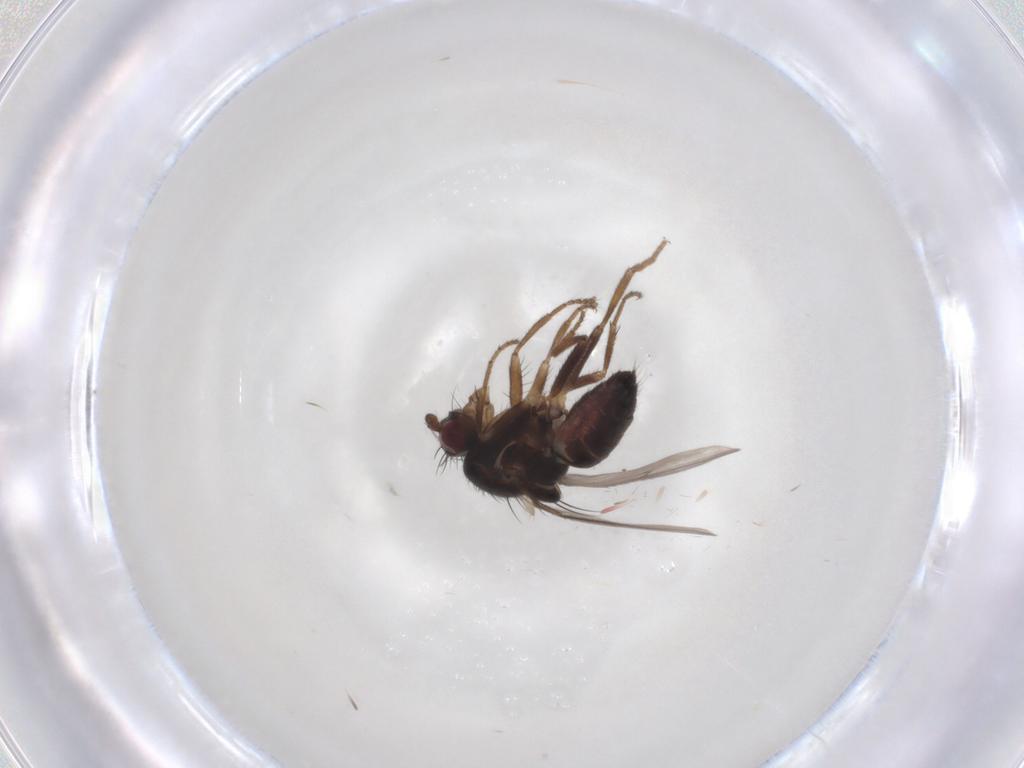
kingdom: Animalia
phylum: Arthropoda
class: Insecta
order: Diptera
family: Sphaeroceridae
